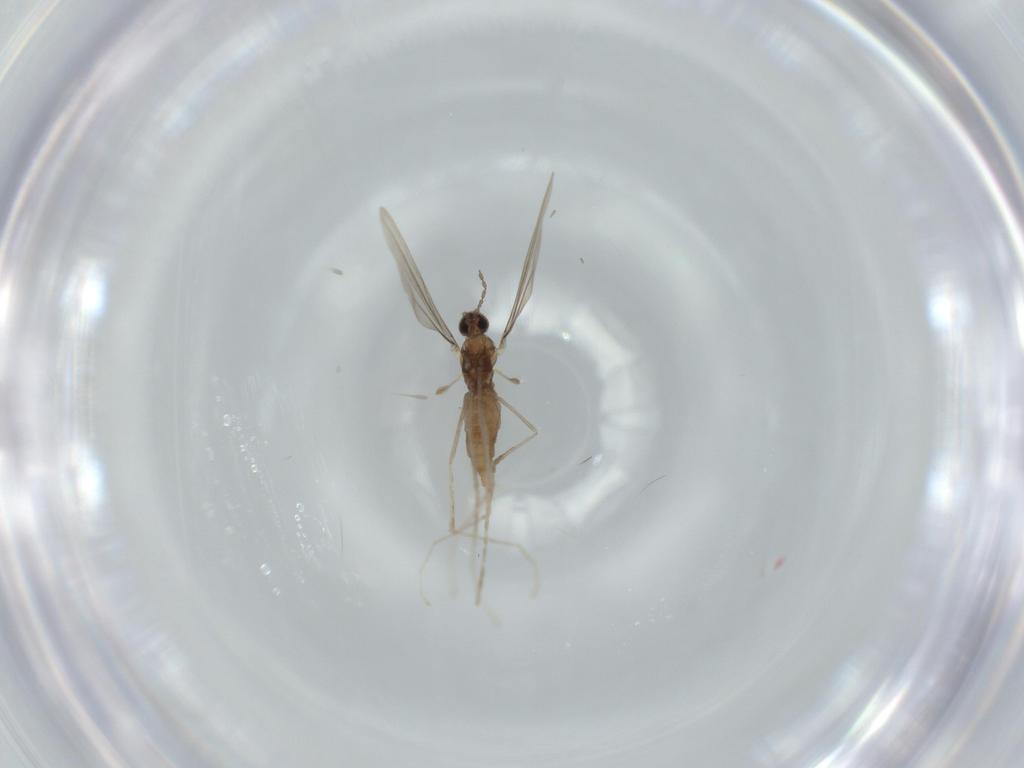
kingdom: Animalia
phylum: Arthropoda
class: Insecta
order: Diptera
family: Cecidomyiidae
